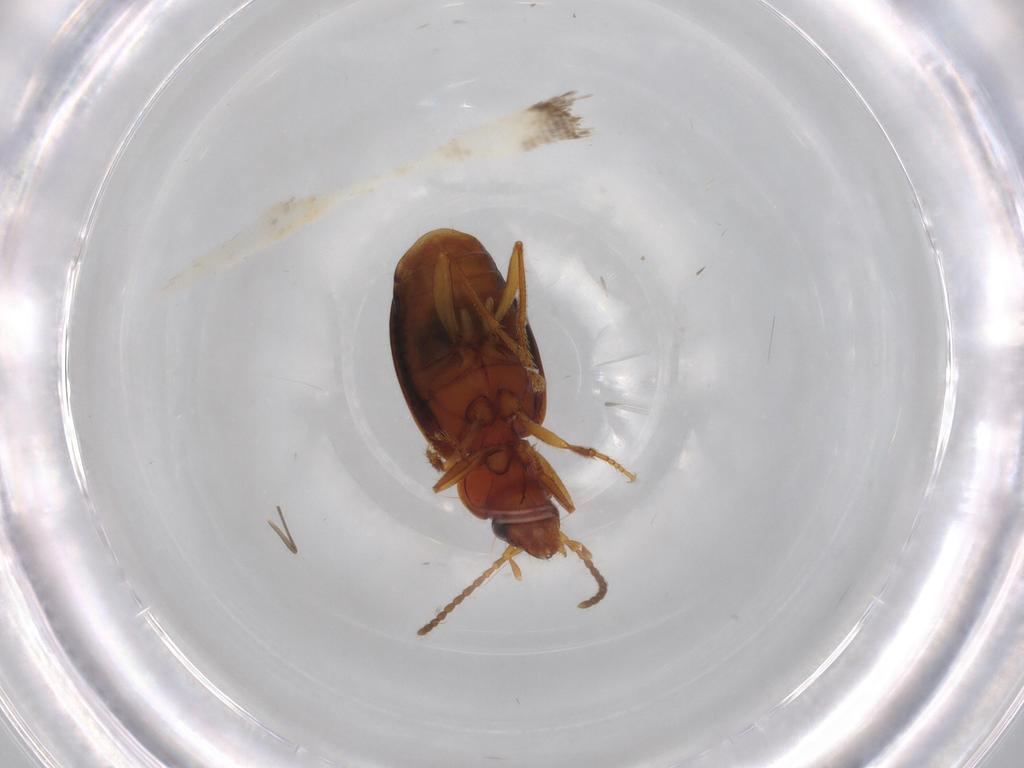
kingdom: Animalia
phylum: Arthropoda
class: Insecta
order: Coleoptera
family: Carabidae
